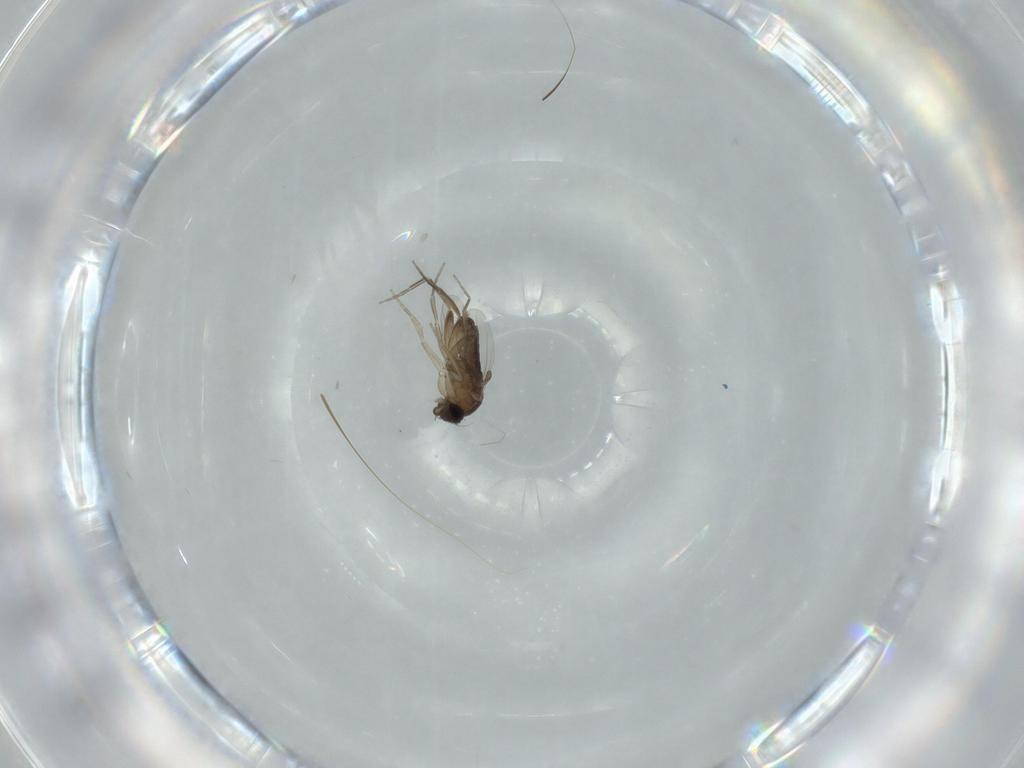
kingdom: Animalia
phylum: Arthropoda
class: Insecta
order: Diptera
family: Phoridae
